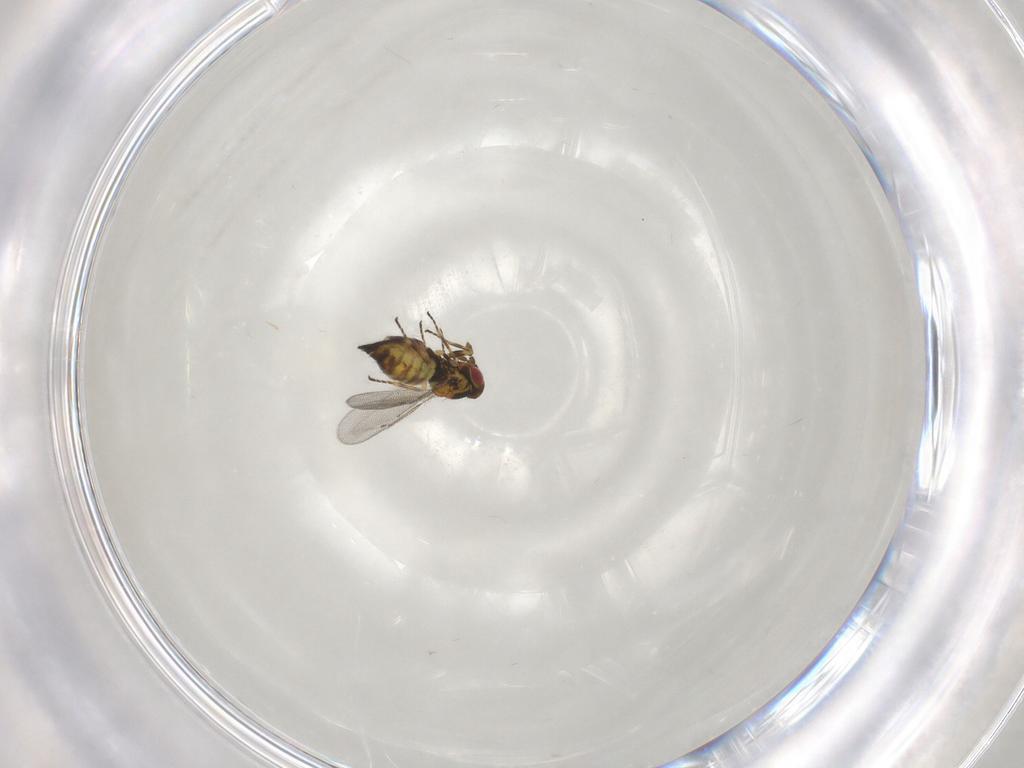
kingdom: Animalia
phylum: Arthropoda
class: Insecta
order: Hymenoptera
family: Eulophidae
